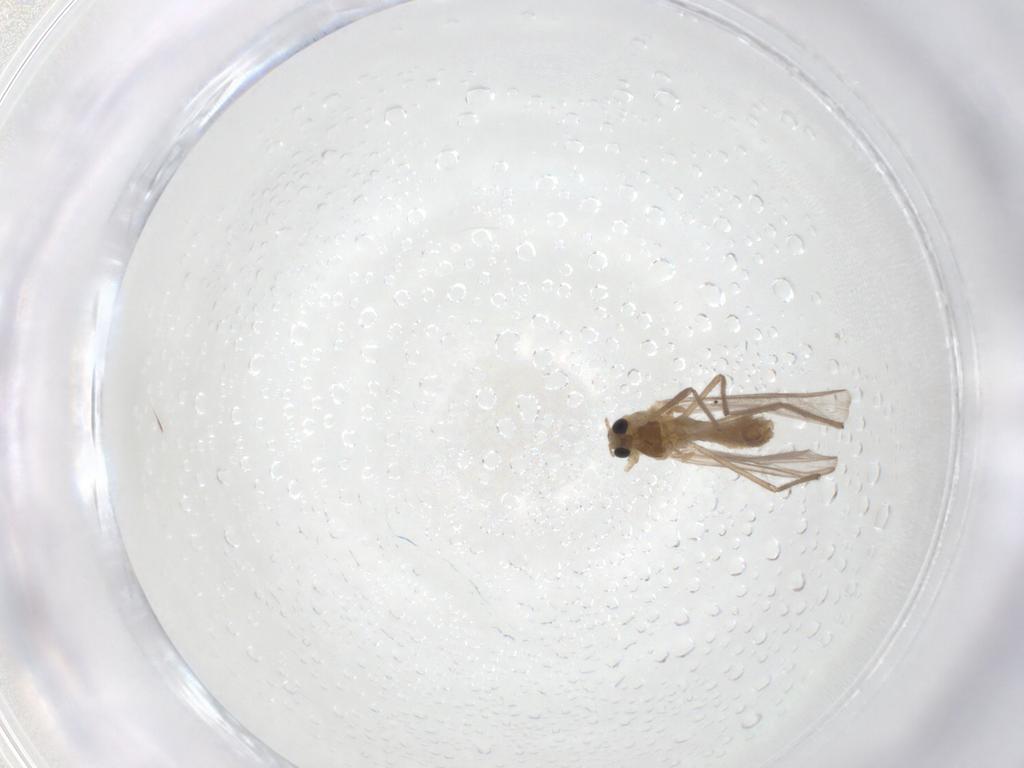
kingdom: Animalia
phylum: Arthropoda
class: Insecta
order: Diptera
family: Chironomidae
